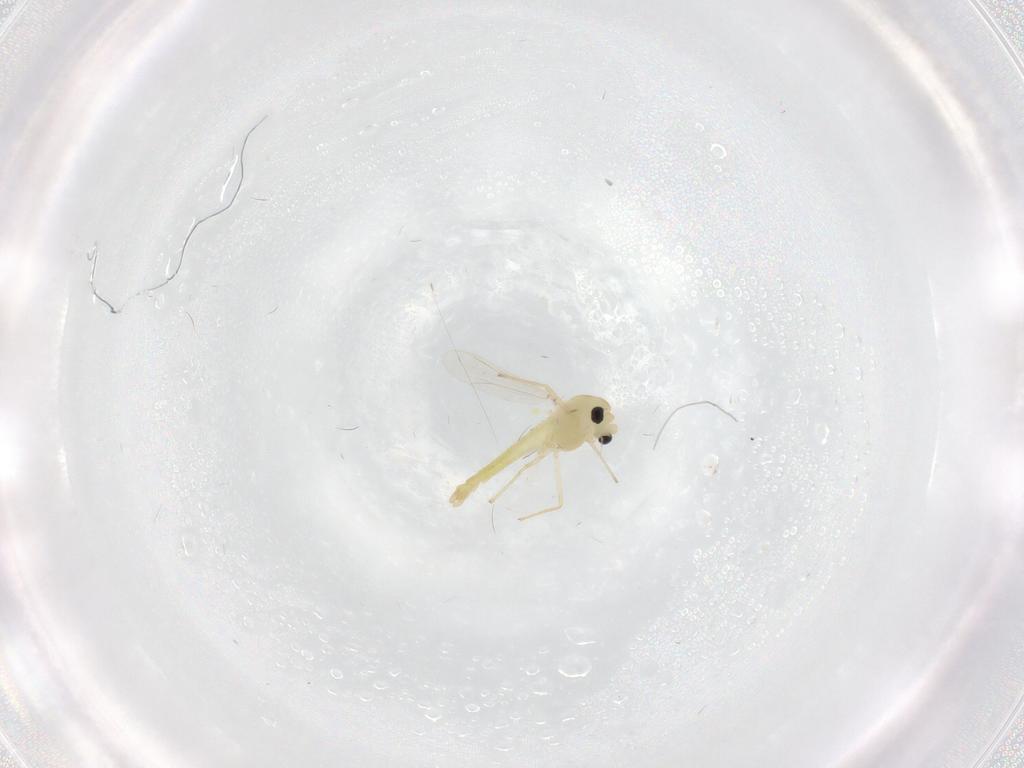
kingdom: Animalia
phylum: Arthropoda
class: Insecta
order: Diptera
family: Chironomidae
